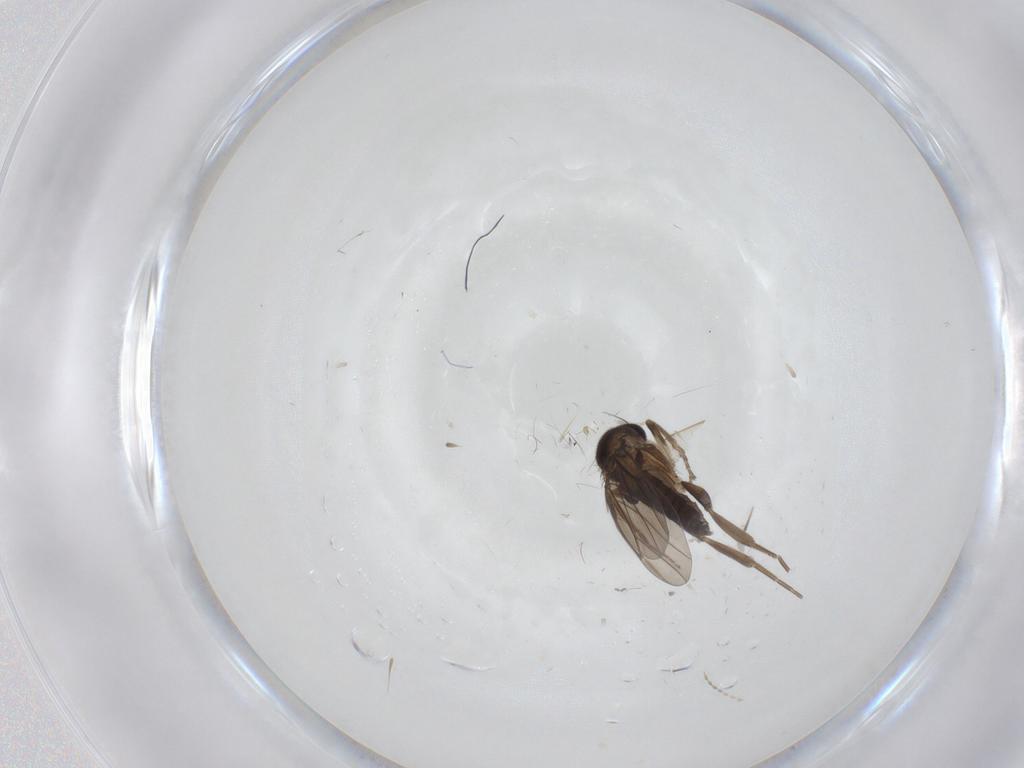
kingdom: Animalia
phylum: Arthropoda
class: Insecta
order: Diptera
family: Cecidomyiidae
